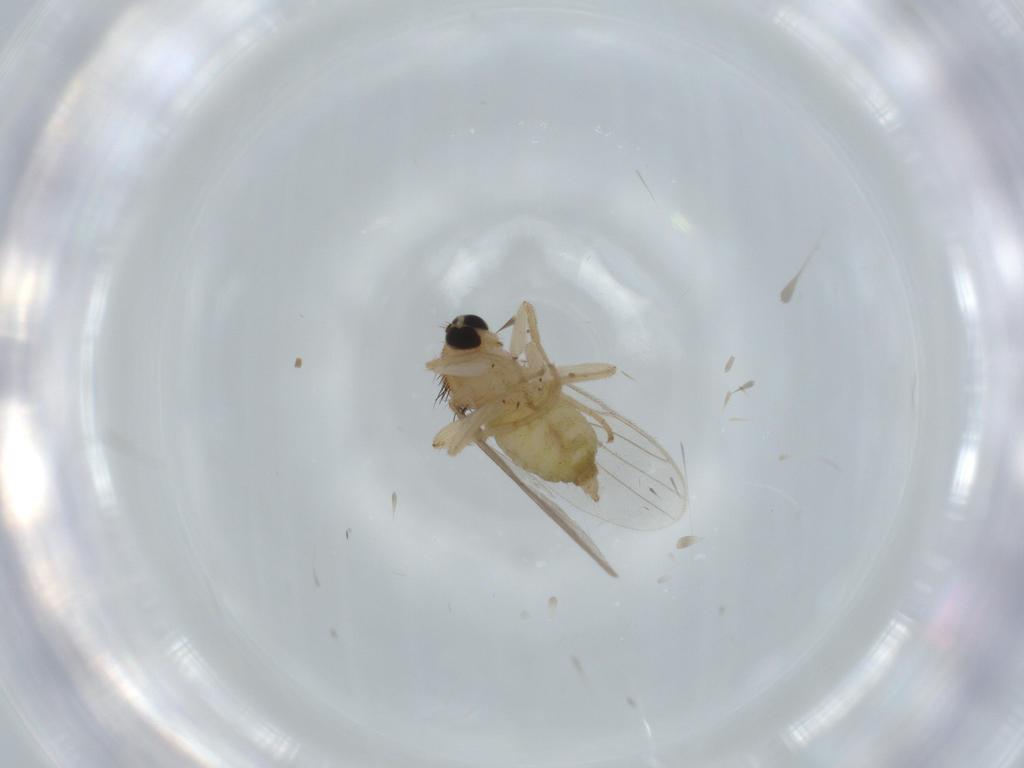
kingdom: Animalia
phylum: Arthropoda
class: Insecta
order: Diptera
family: Hybotidae
